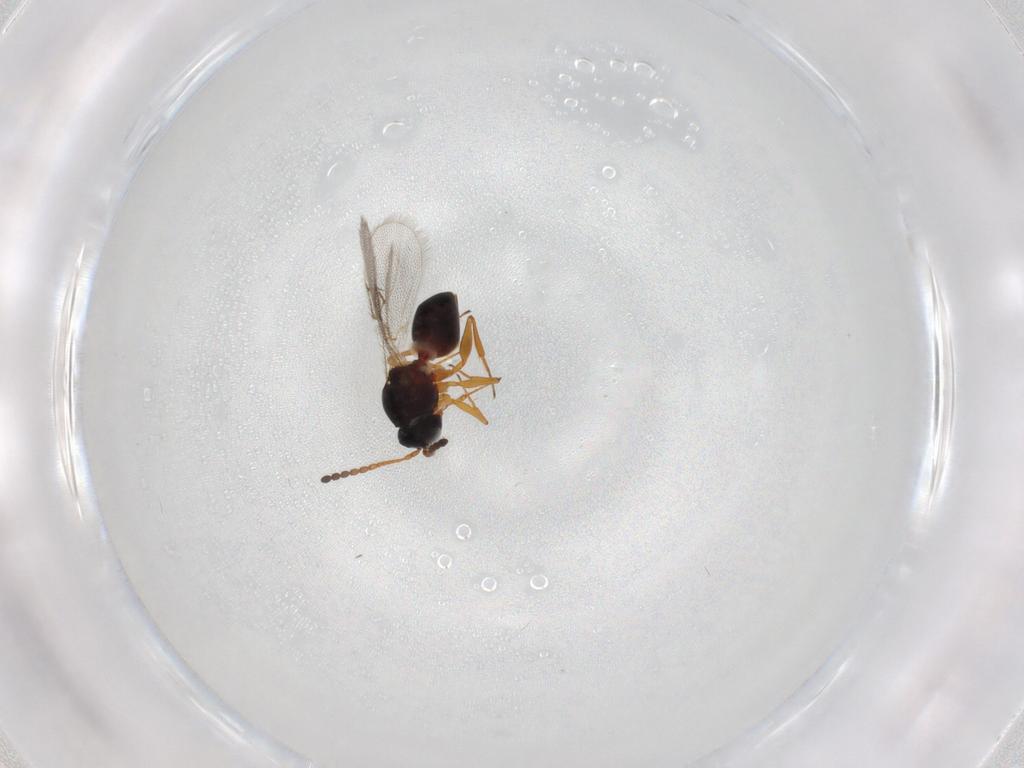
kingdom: Animalia
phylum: Arthropoda
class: Insecta
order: Hymenoptera
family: Figitidae
